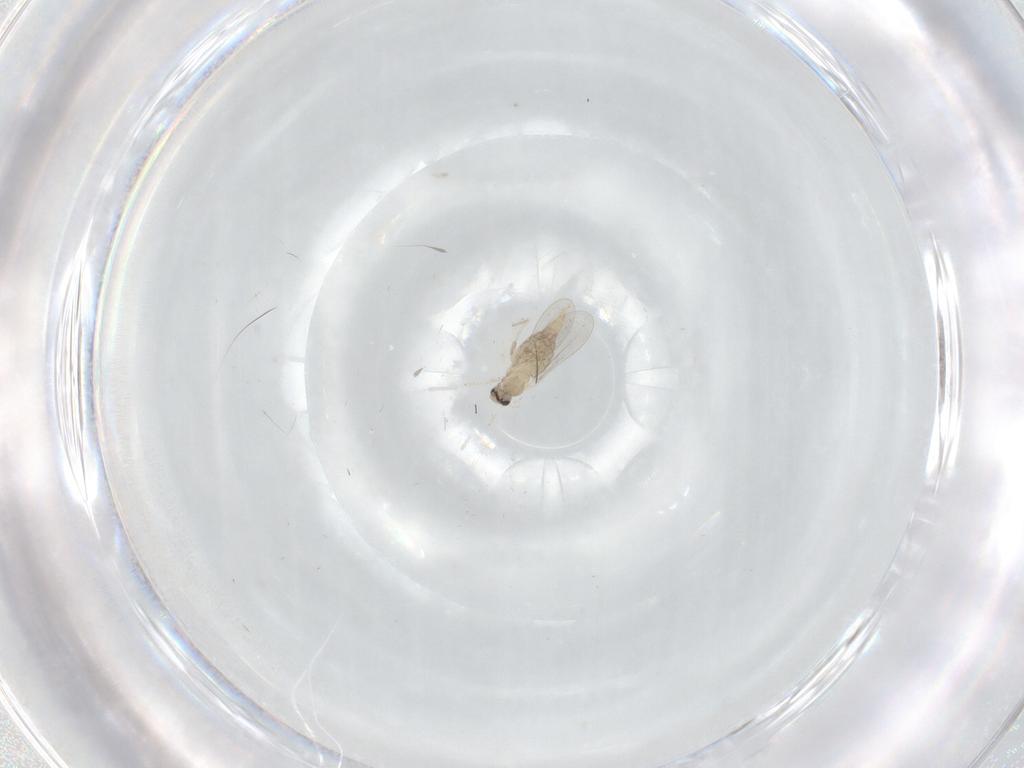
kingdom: Animalia
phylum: Arthropoda
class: Insecta
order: Diptera
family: Cecidomyiidae
